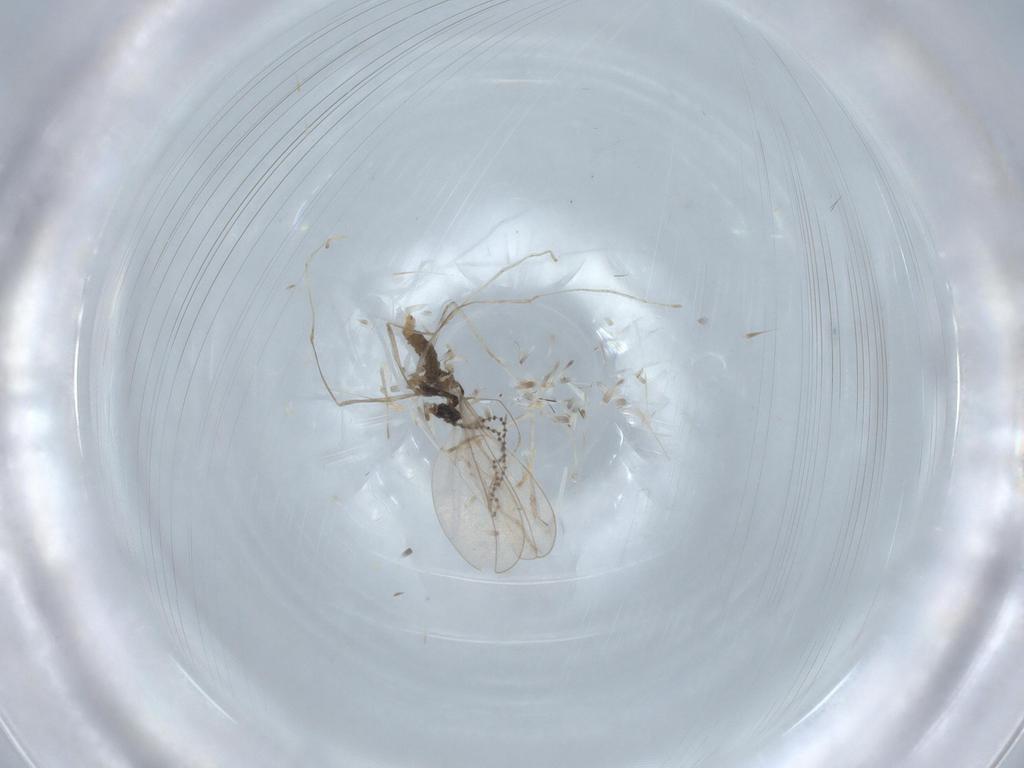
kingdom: Animalia
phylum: Arthropoda
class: Insecta
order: Diptera
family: Cecidomyiidae
